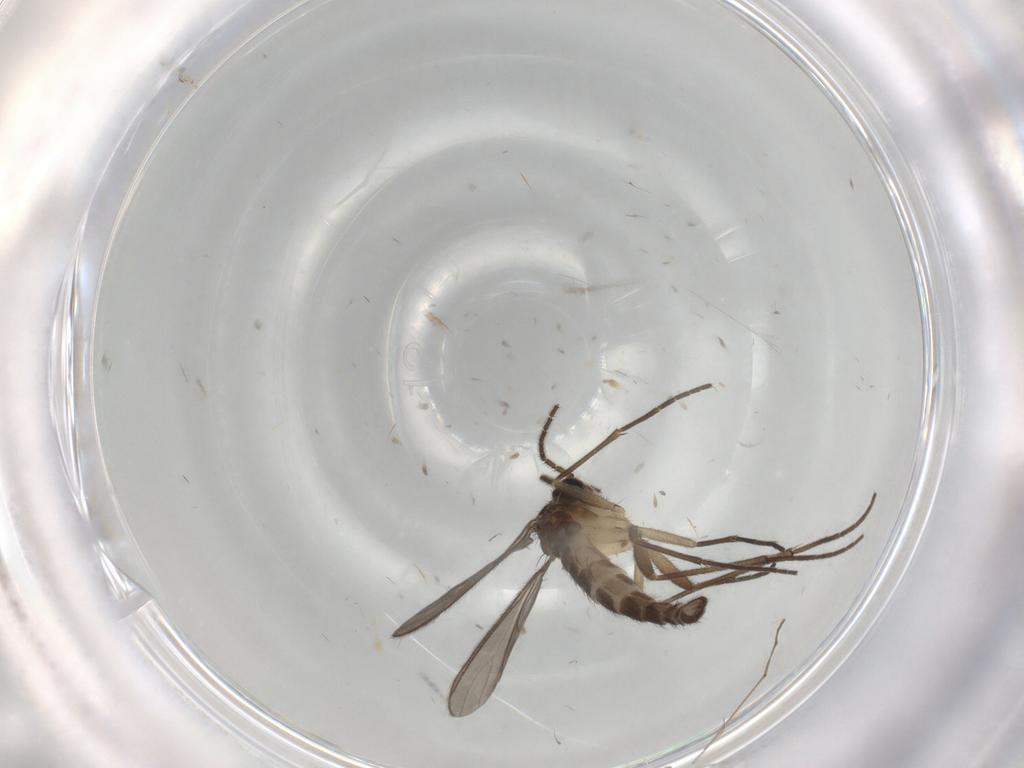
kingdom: Animalia
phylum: Arthropoda
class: Insecta
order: Diptera
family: Sciaridae
